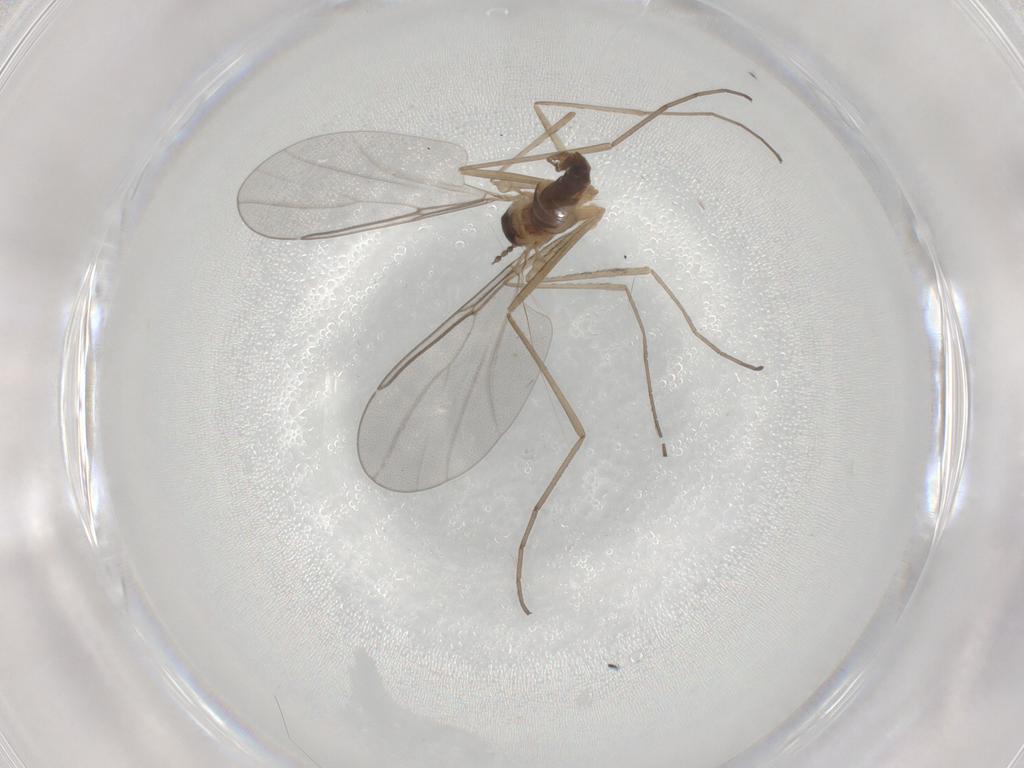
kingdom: Animalia
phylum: Arthropoda
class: Insecta
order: Diptera
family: Cecidomyiidae
